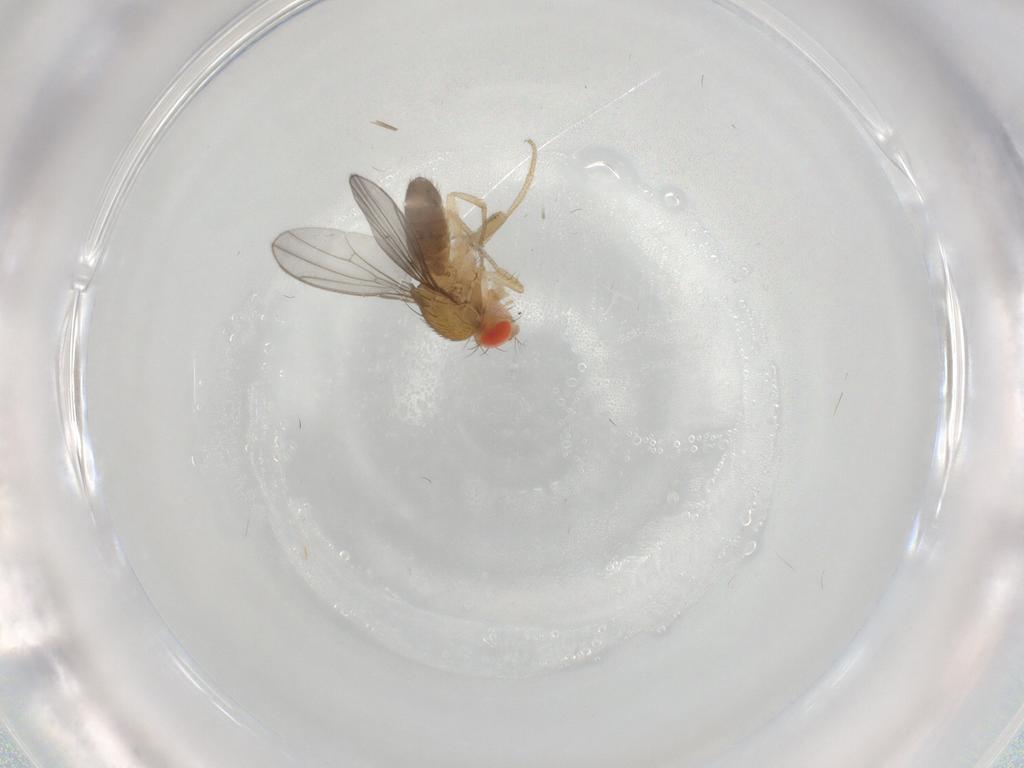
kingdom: Animalia
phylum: Arthropoda
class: Insecta
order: Diptera
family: Drosophilidae
